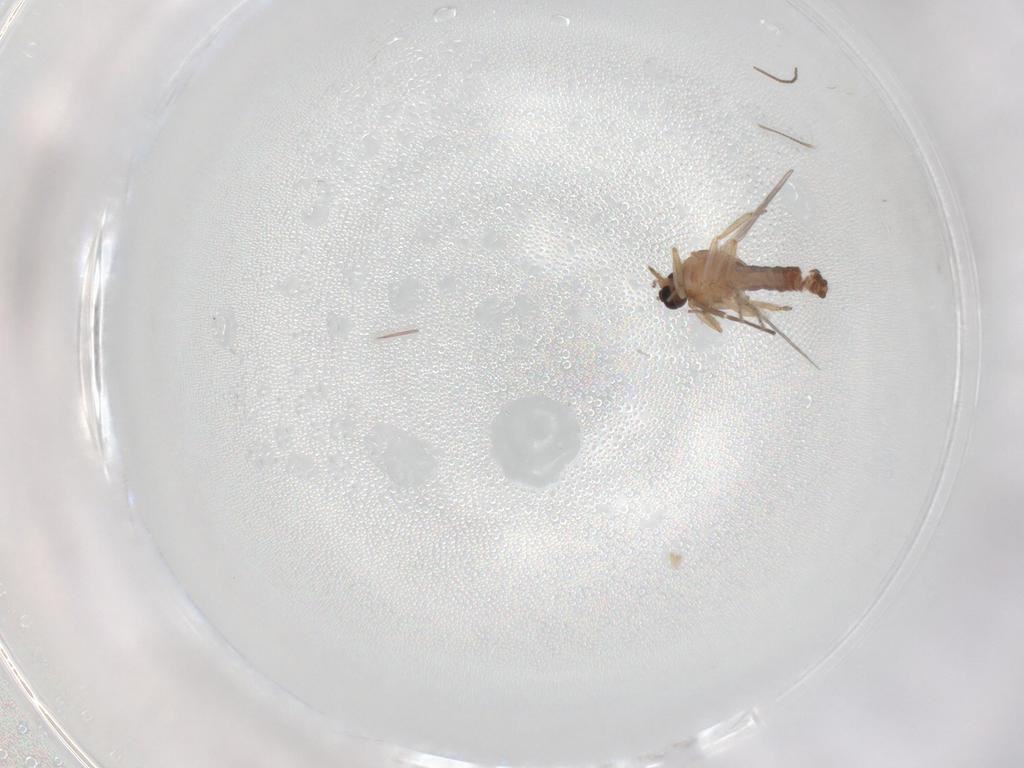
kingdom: Animalia
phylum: Arthropoda
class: Insecta
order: Diptera
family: Ceratopogonidae
